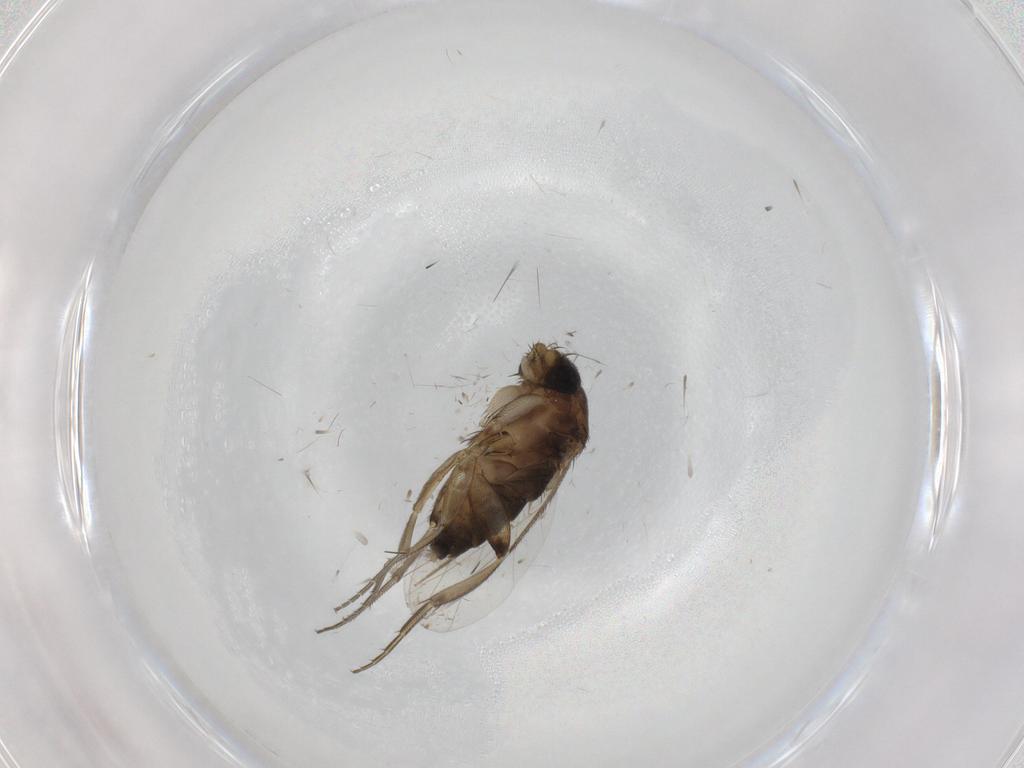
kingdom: Animalia
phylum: Arthropoda
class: Insecta
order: Diptera
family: Phoridae
